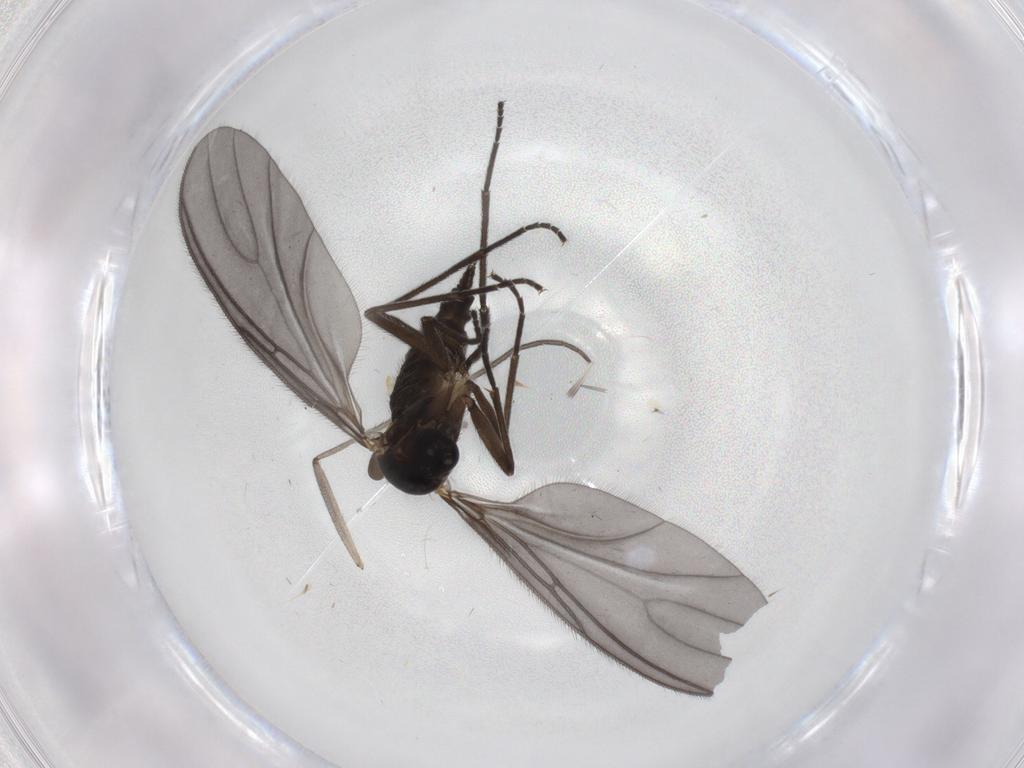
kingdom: Animalia
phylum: Arthropoda
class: Insecta
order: Diptera
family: Sciaridae
